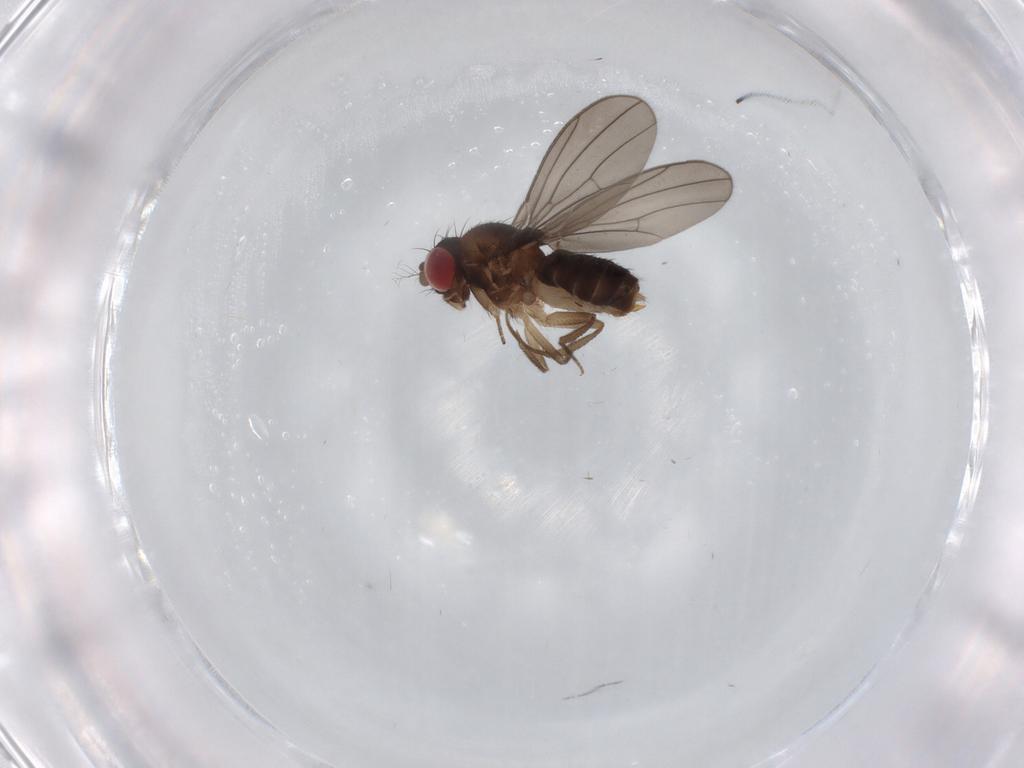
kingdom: Animalia
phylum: Arthropoda
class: Insecta
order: Diptera
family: Drosophilidae
